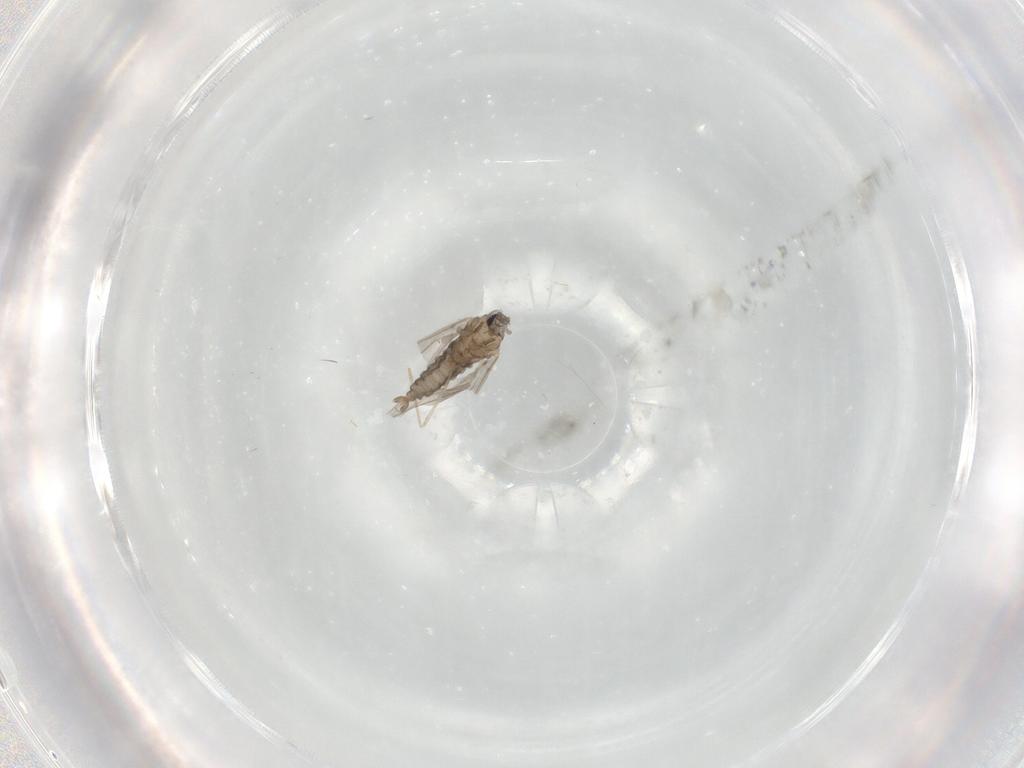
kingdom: Animalia
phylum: Arthropoda
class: Insecta
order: Diptera
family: Cecidomyiidae
